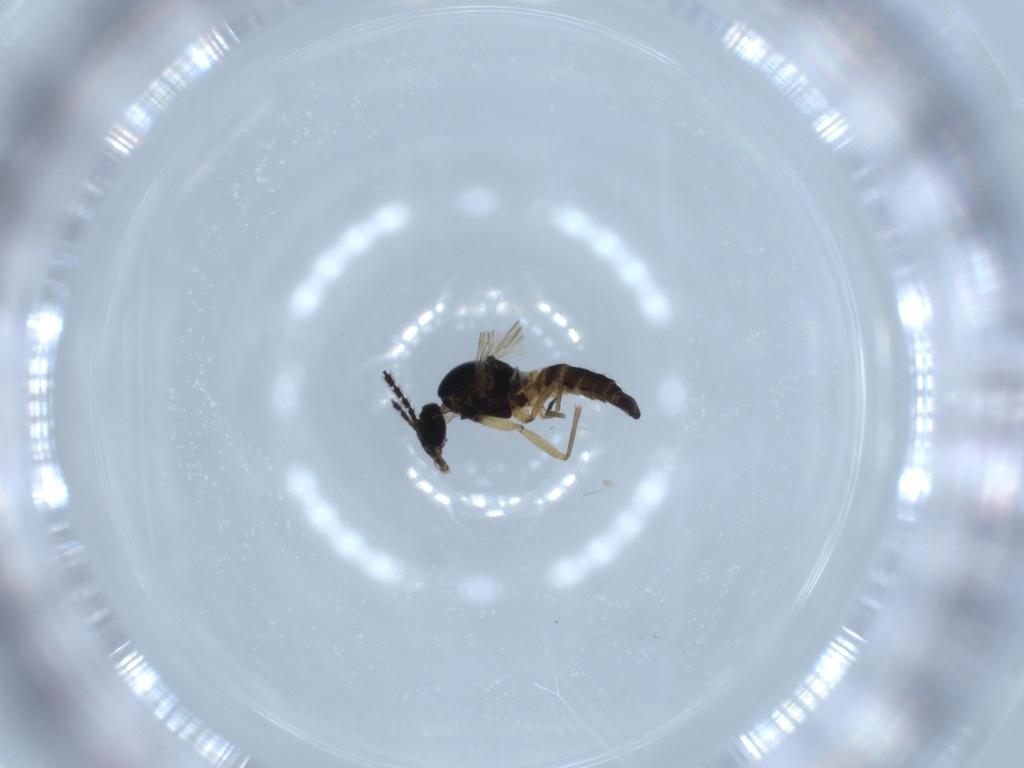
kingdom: Animalia
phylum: Arthropoda
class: Insecta
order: Diptera
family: Sciaridae
